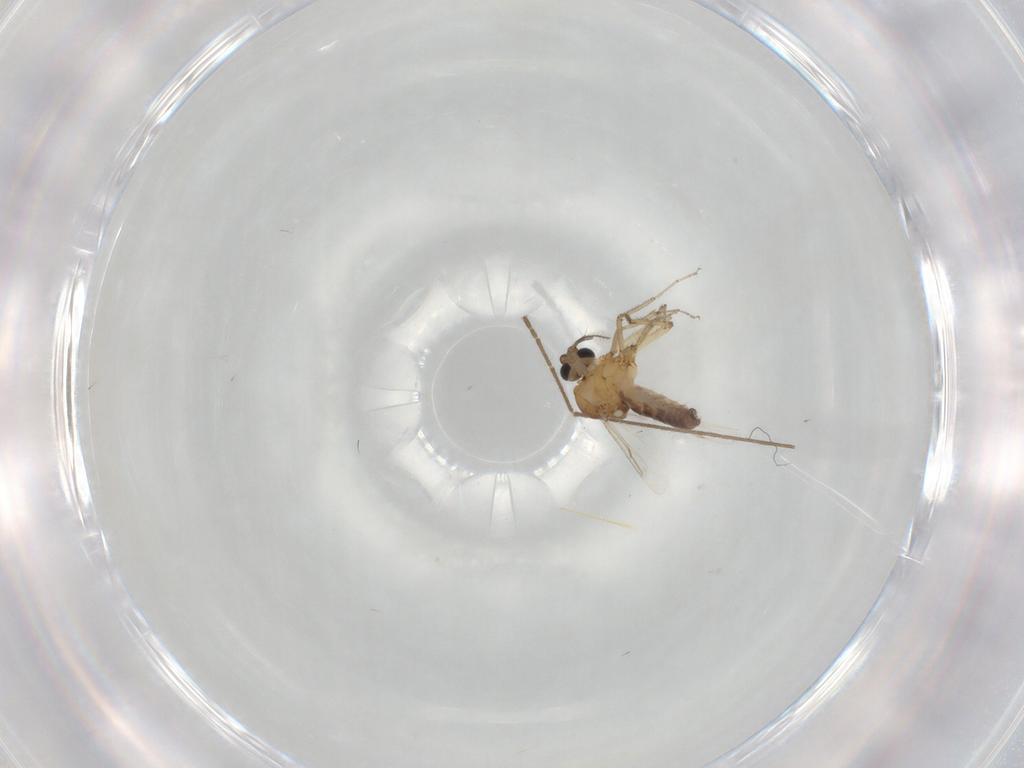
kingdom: Animalia
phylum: Arthropoda
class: Insecta
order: Diptera
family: Ceratopogonidae
